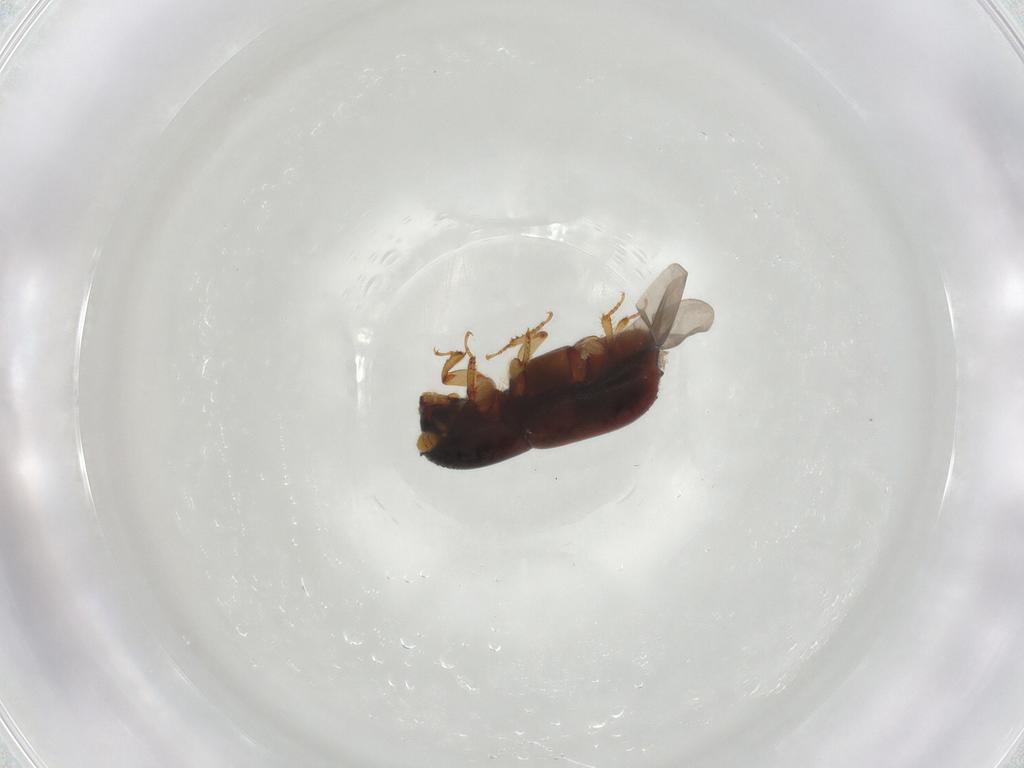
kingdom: Animalia
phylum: Arthropoda
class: Insecta
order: Coleoptera
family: Curculionidae
